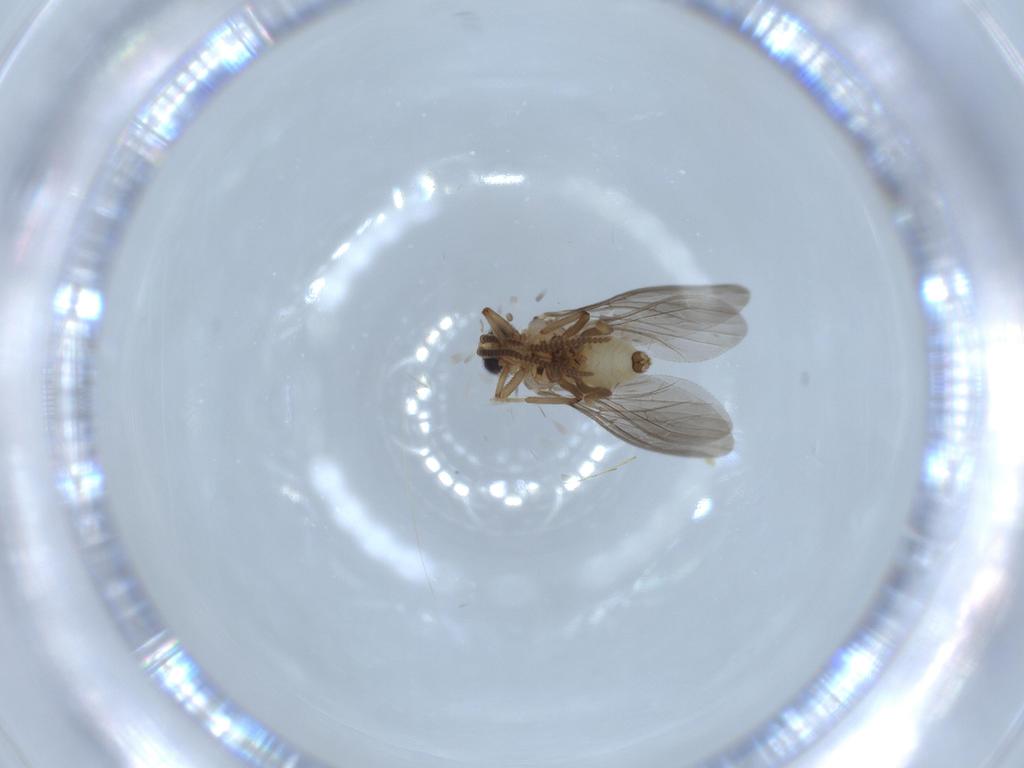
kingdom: Animalia
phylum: Arthropoda
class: Insecta
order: Neuroptera
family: Coniopterygidae
